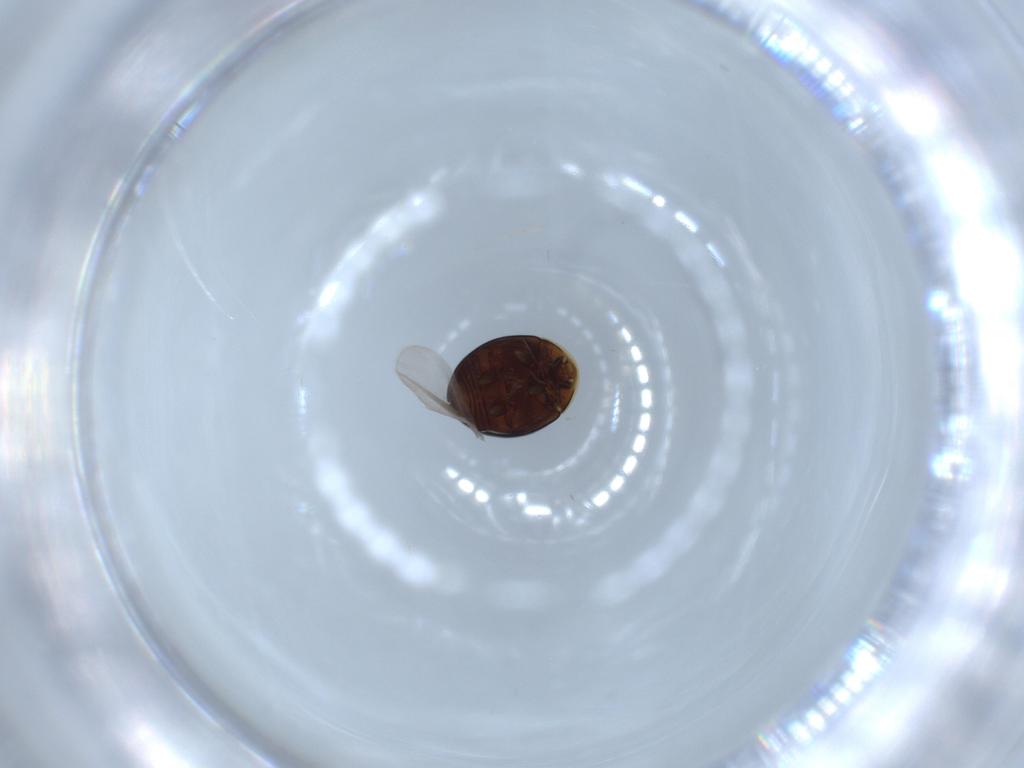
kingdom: Animalia
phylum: Arthropoda
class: Insecta
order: Coleoptera
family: Corylophidae
